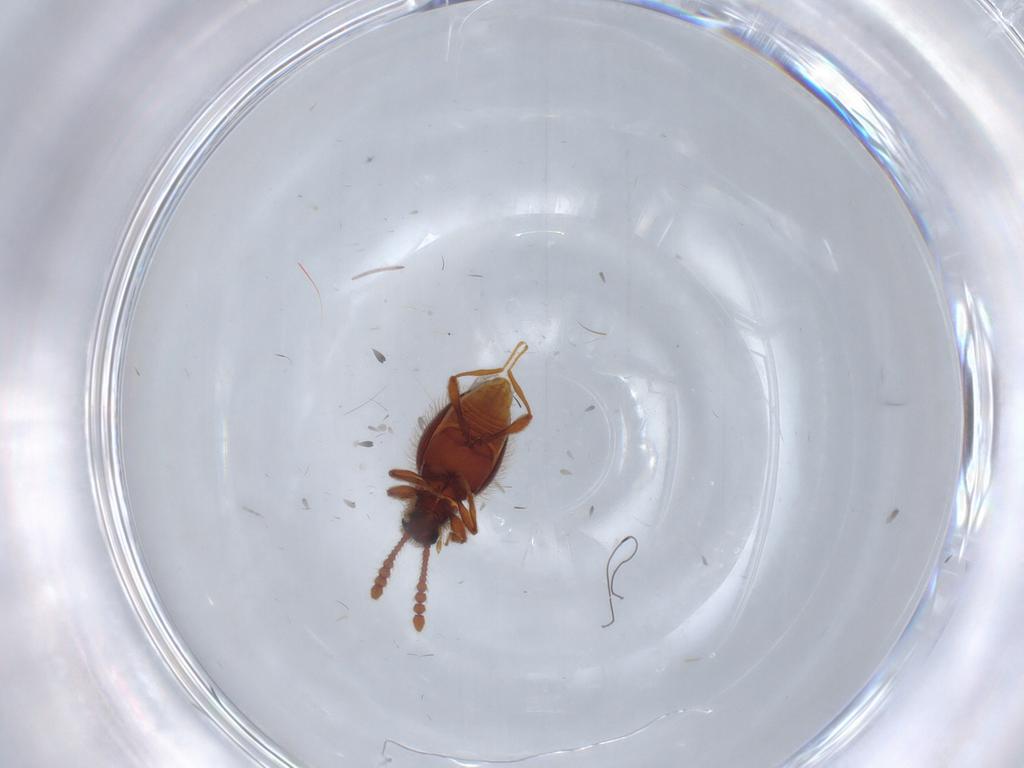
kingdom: Animalia
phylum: Arthropoda
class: Insecta
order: Coleoptera
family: Staphylinidae
